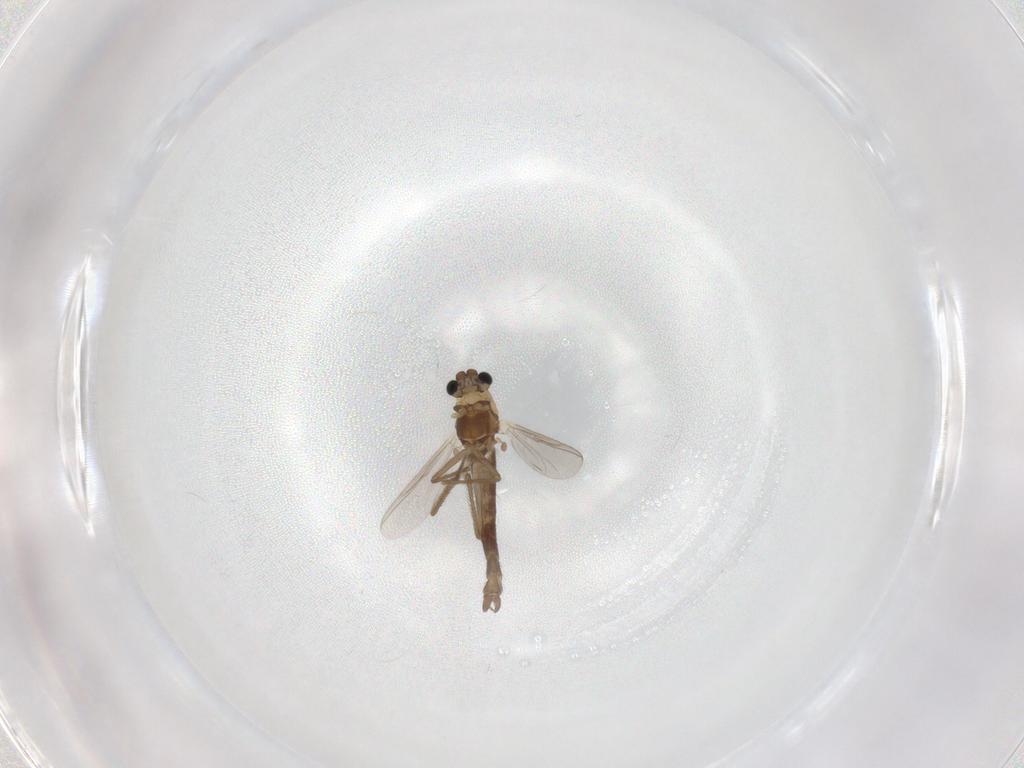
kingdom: Animalia
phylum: Arthropoda
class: Insecta
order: Diptera
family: Chironomidae
